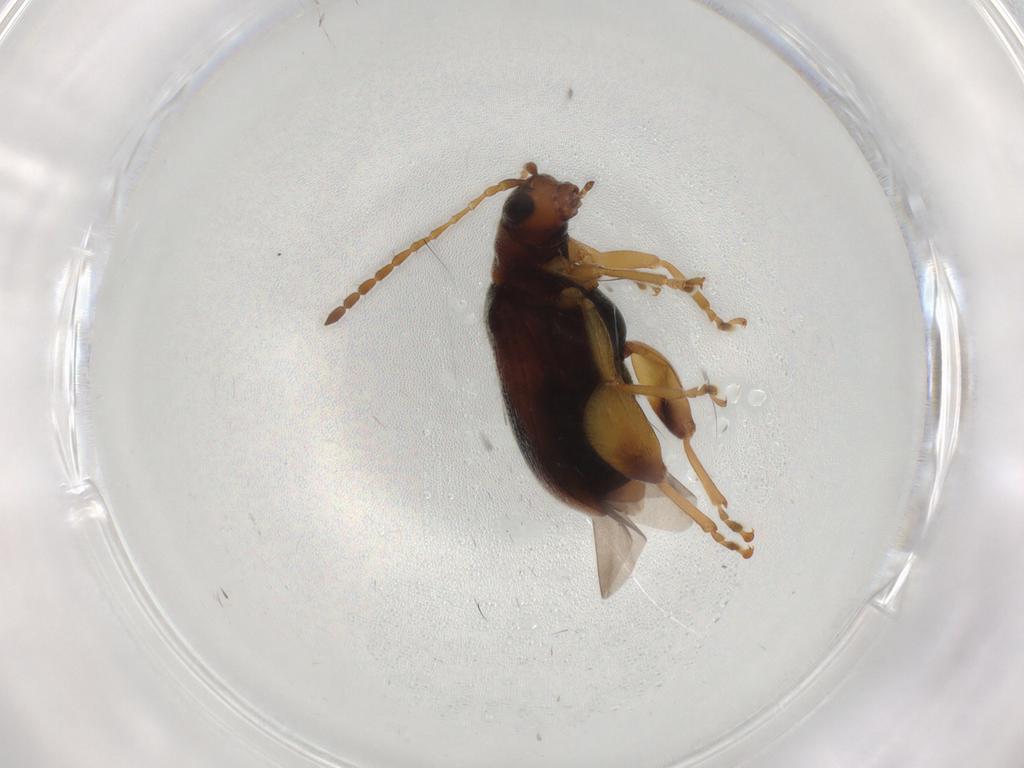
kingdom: Animalia
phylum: Arthropoda
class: Insecta
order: Coleoptera
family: Chrysomelidae
